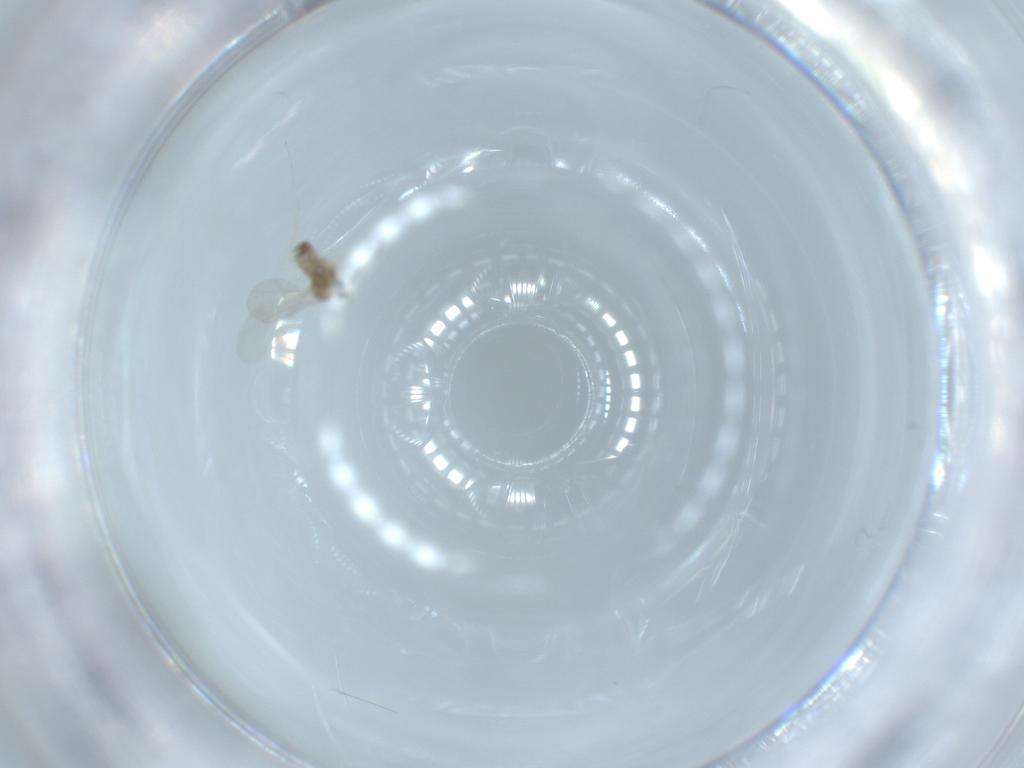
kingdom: Animalia
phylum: Arthropoda
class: Insecta
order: Diptera
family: Cecidomyiidae
